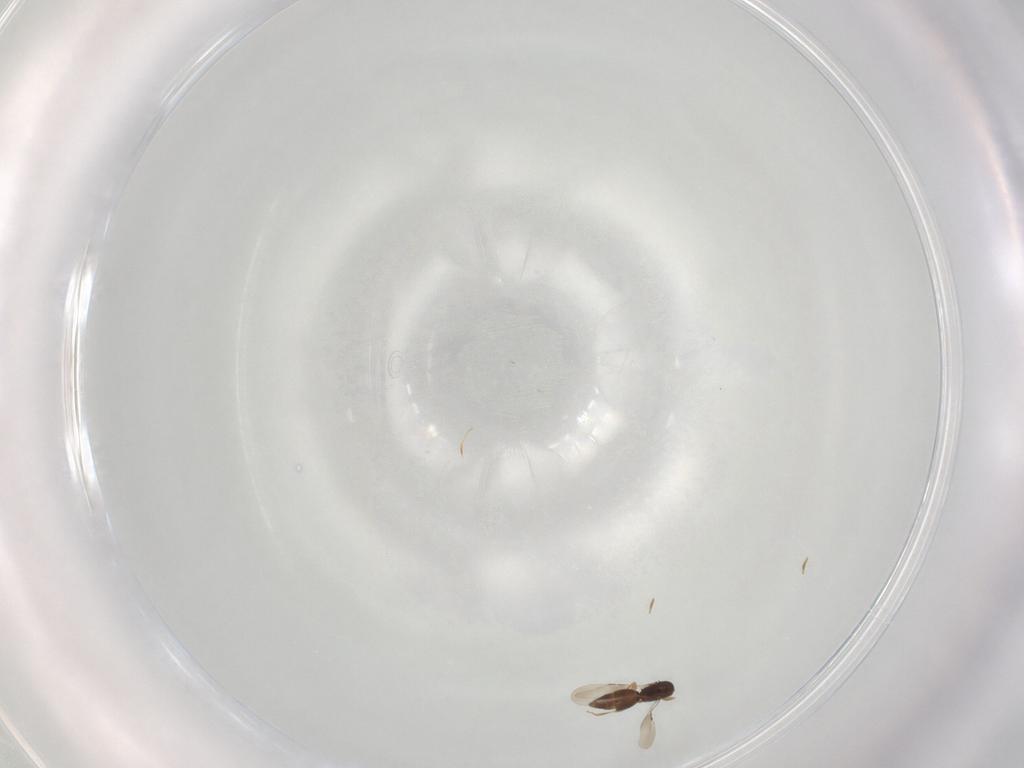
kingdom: Animalia
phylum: Arthropoda
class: Insecta
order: Hymenoptera
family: Ceraphronidae
